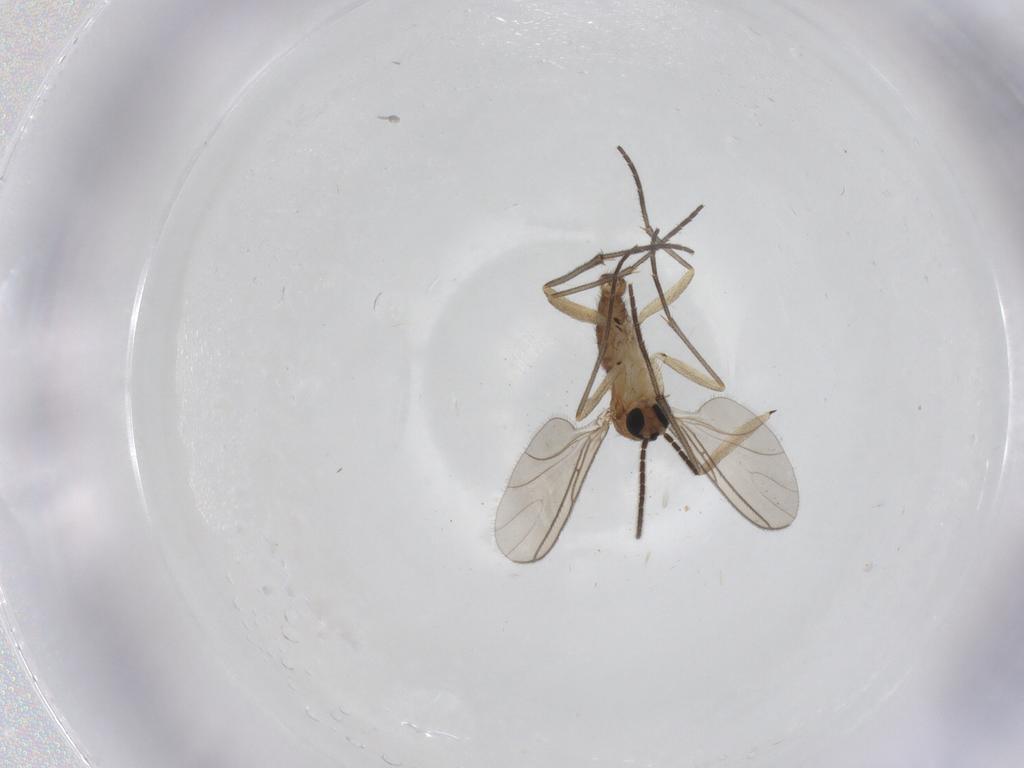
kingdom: Animalia
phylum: Arthropoda
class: Insecta
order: Diptera
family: Sciaridae
